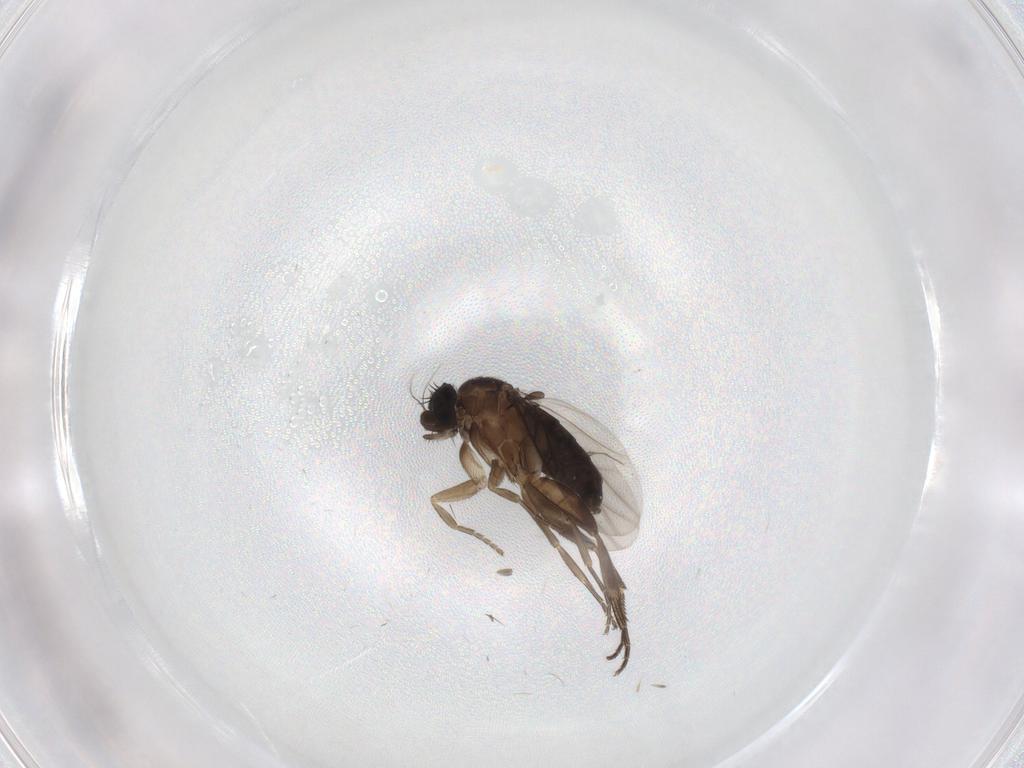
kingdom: Animalia
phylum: Arthropoda
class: Insecta
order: Diptera
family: Phoridae
